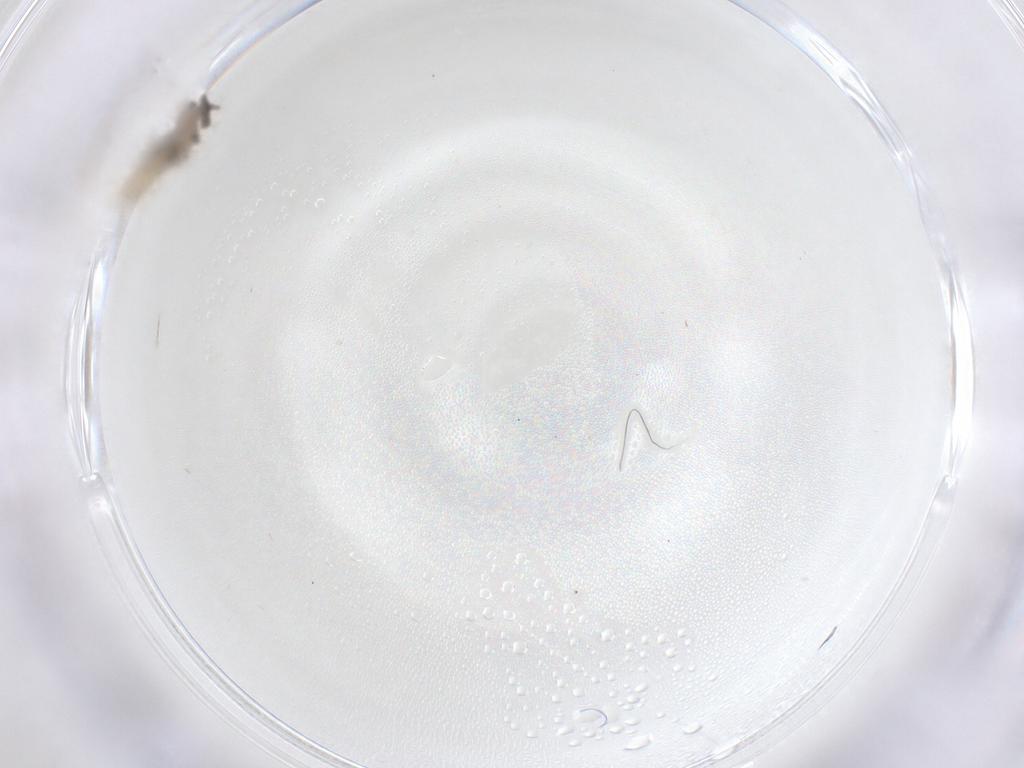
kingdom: Animalia
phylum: Arthropoda
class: Insecta
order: Diptera
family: Cecidomyiidae
